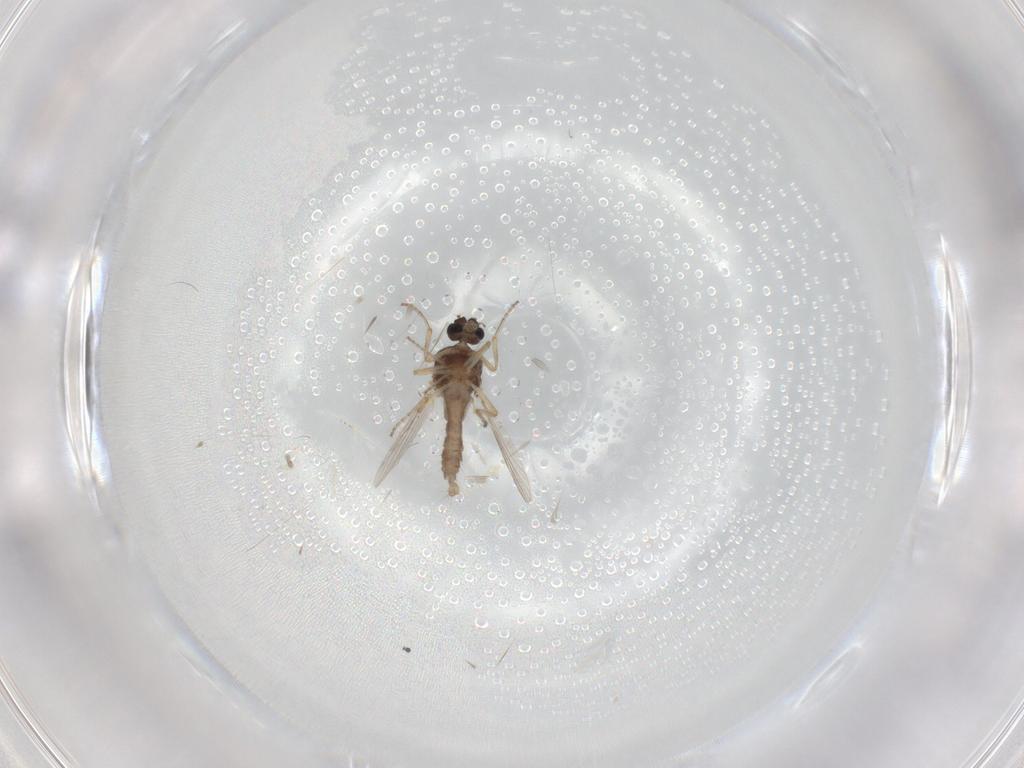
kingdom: Animalia
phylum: Arthropoda
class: Insecta
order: Diptera
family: Ceratopogonidae
